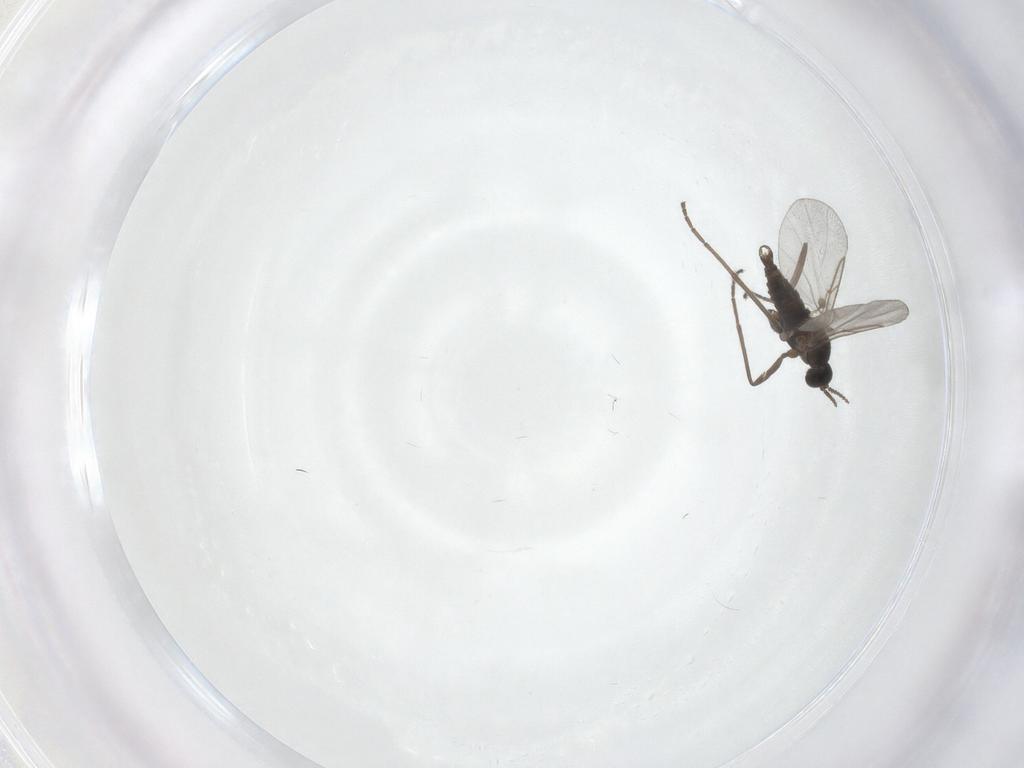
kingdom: Animalia
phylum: Arthropoda
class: Insecta
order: Diptera
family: Cecidomyiidae
